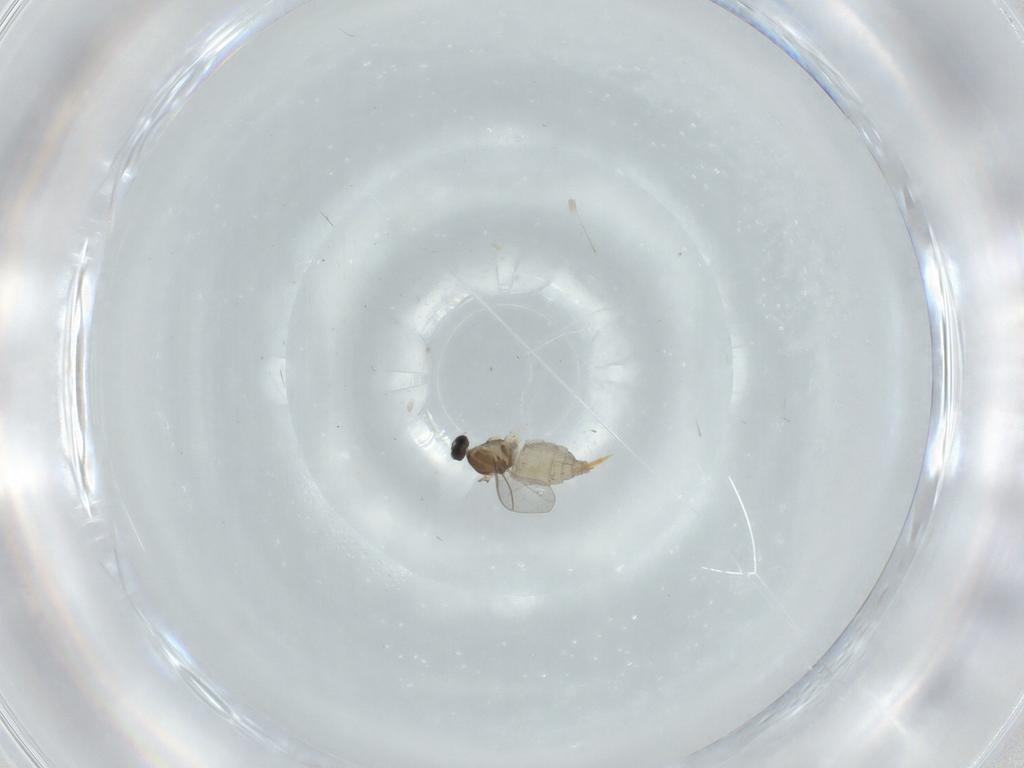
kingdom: Animalia
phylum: Arthropoda
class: Insecta
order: Diptera
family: Cecidomyiidae
